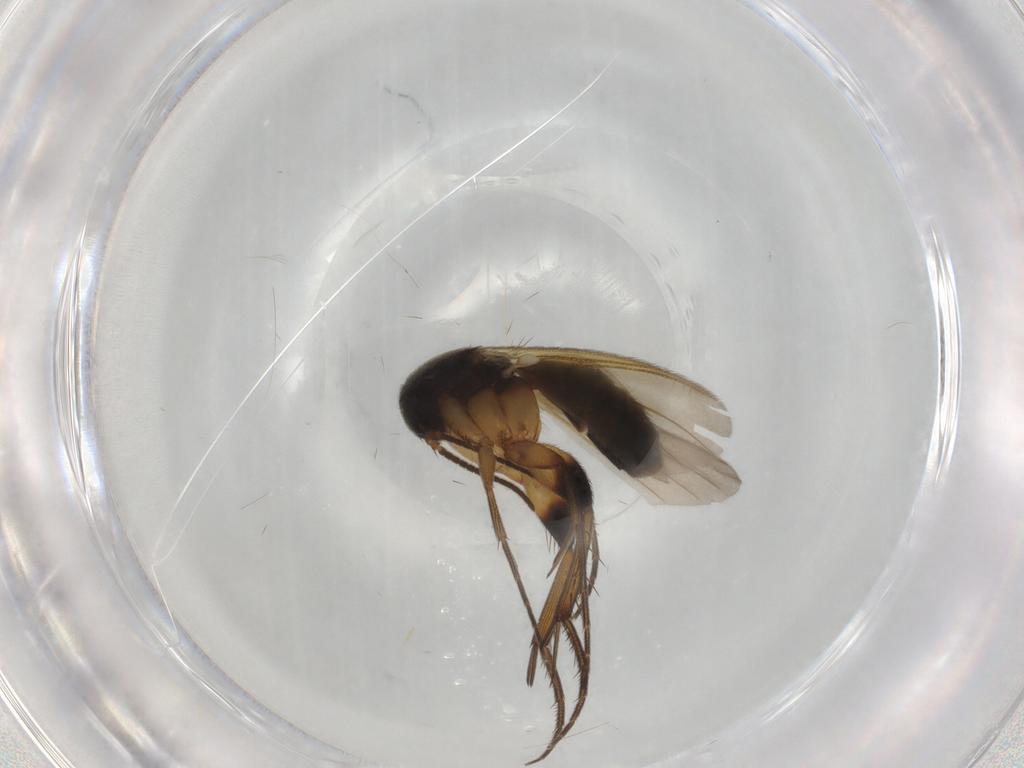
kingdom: Animalia
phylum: Arthropoda
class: Insecta
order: Diptera
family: Sarcophagidae
